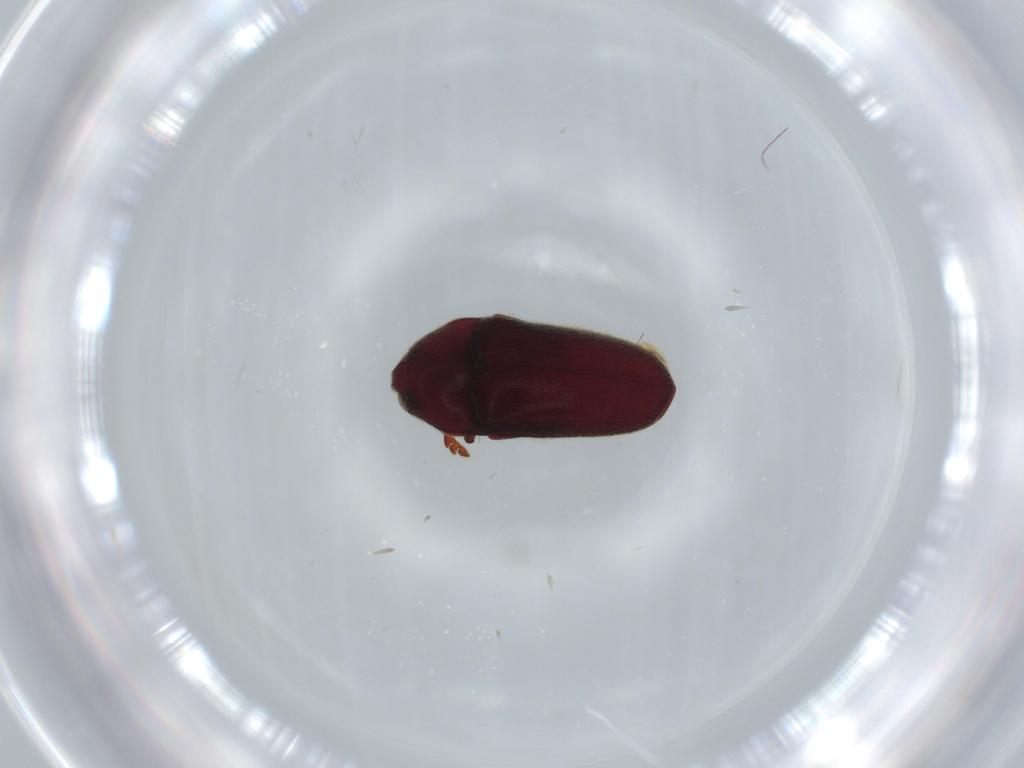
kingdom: Animalia
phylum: Arthropoda
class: Insecta
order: Coleoptera
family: Throscidae
